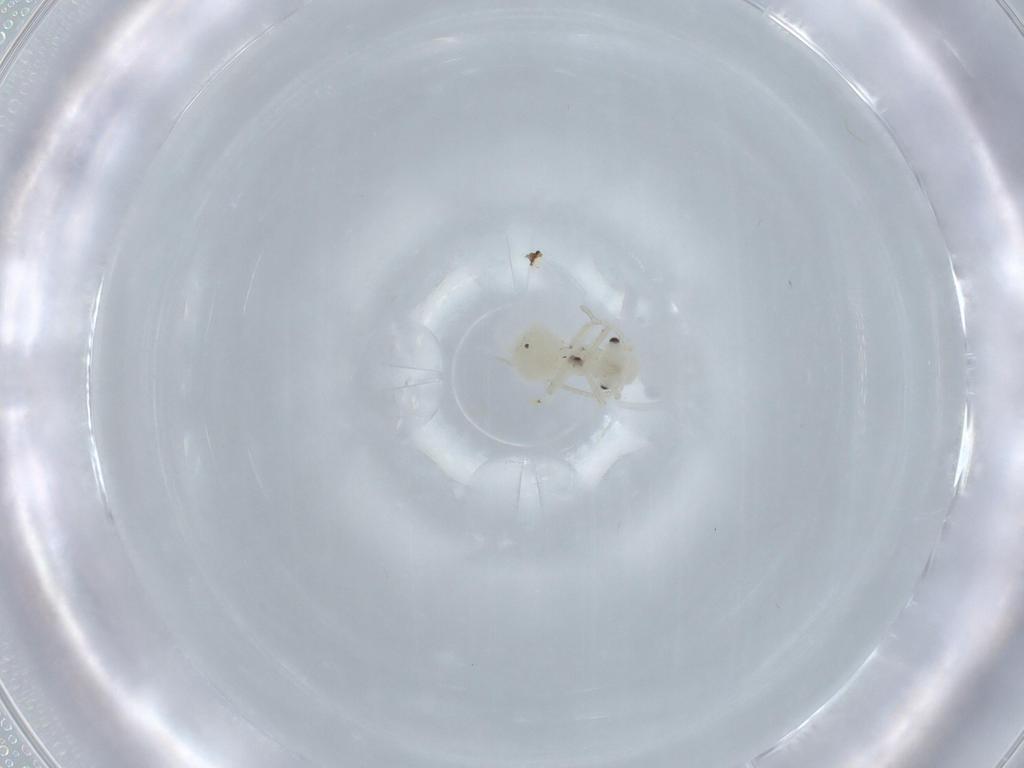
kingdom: Animalia
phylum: Arthropoda
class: Insecta
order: Psocodea
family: Caeciliusidae
